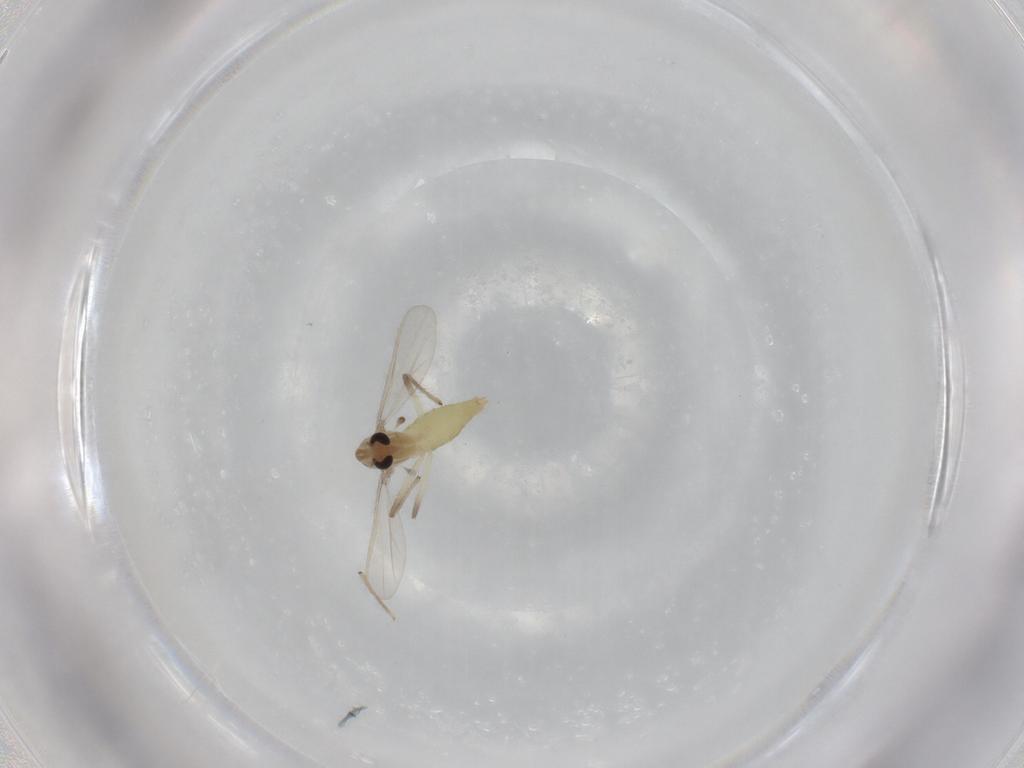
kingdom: Animalia
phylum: Arthropoda
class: Insecta
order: Diptera
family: Chironomidae
